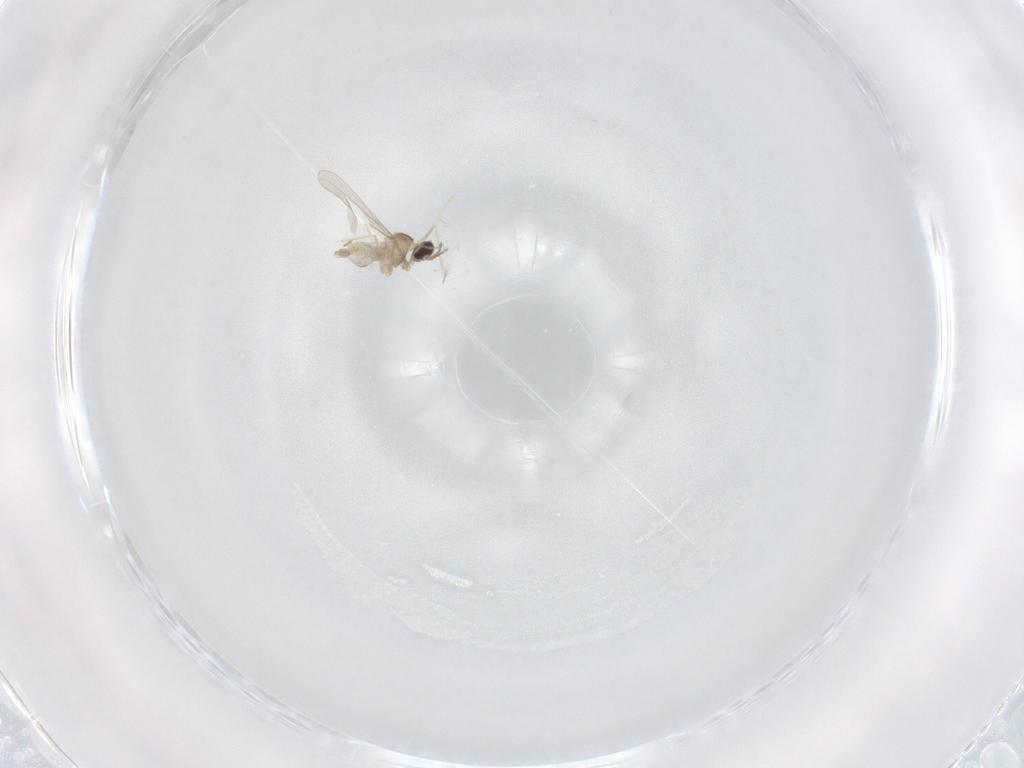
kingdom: Animalia
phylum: Arthropoda
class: Insecta
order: Diptera
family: Cecidomyiidae
